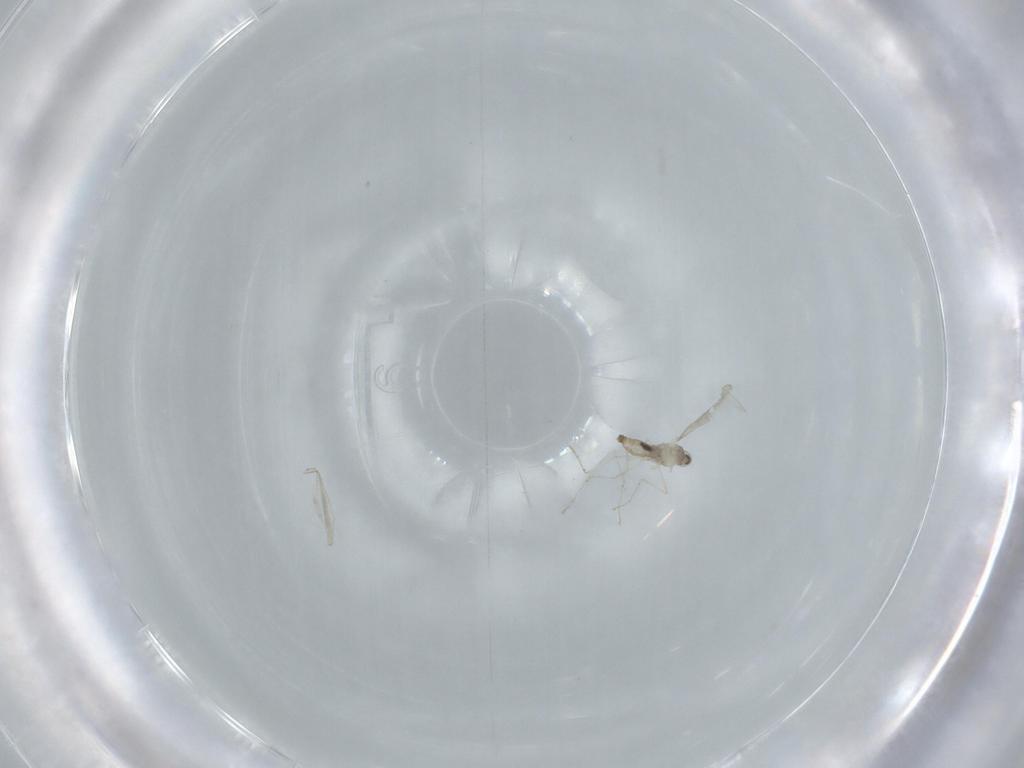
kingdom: Animalia
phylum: Arthropoda
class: Insecta
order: Diptera
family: Cecidomyiidae
